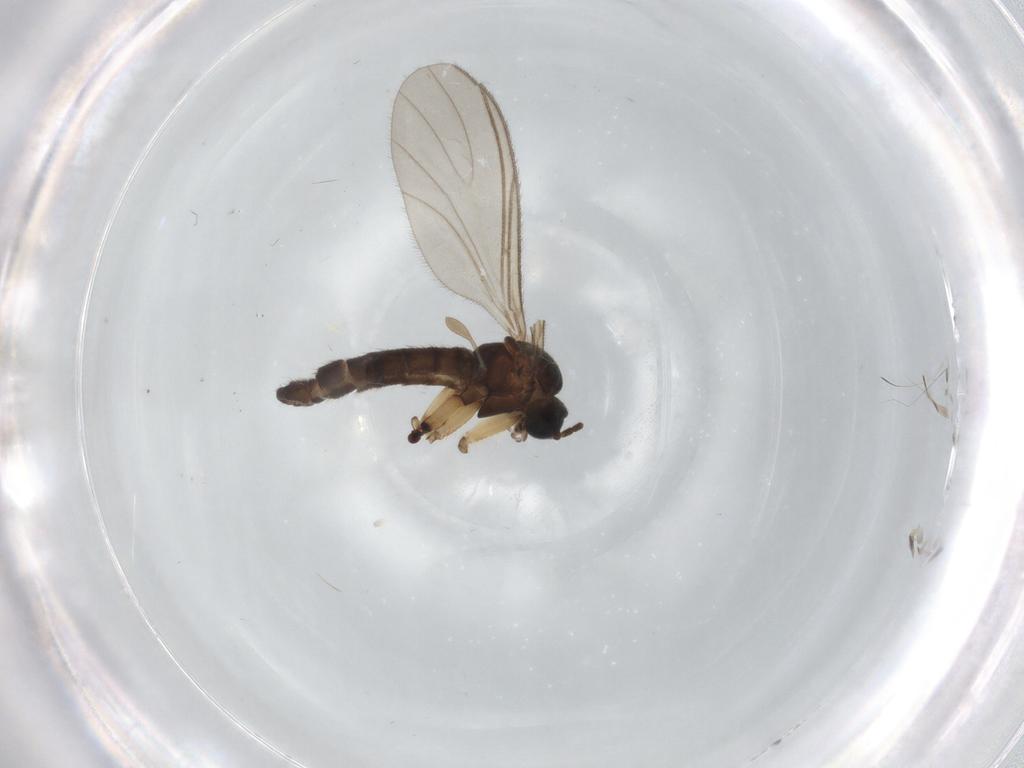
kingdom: Animalia
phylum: Arthropoda
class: Insecta
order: Diptera
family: Sciaridae
